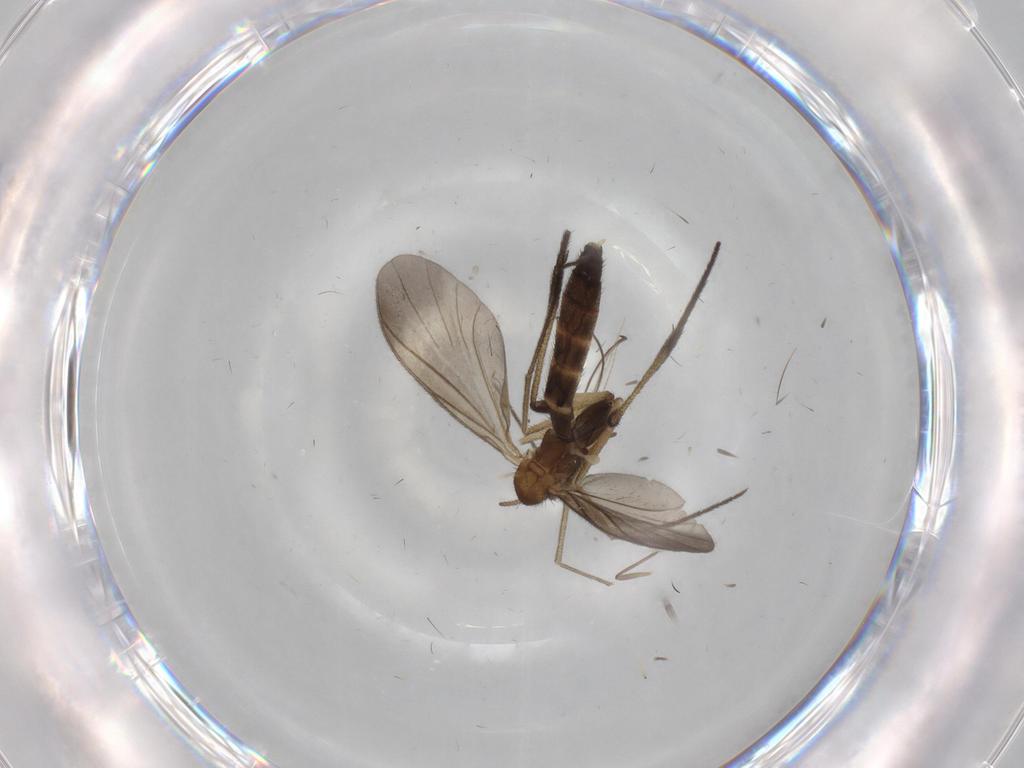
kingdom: Animalia
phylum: Arthropoda
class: Insecta
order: Diptera
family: Keroplatidae
